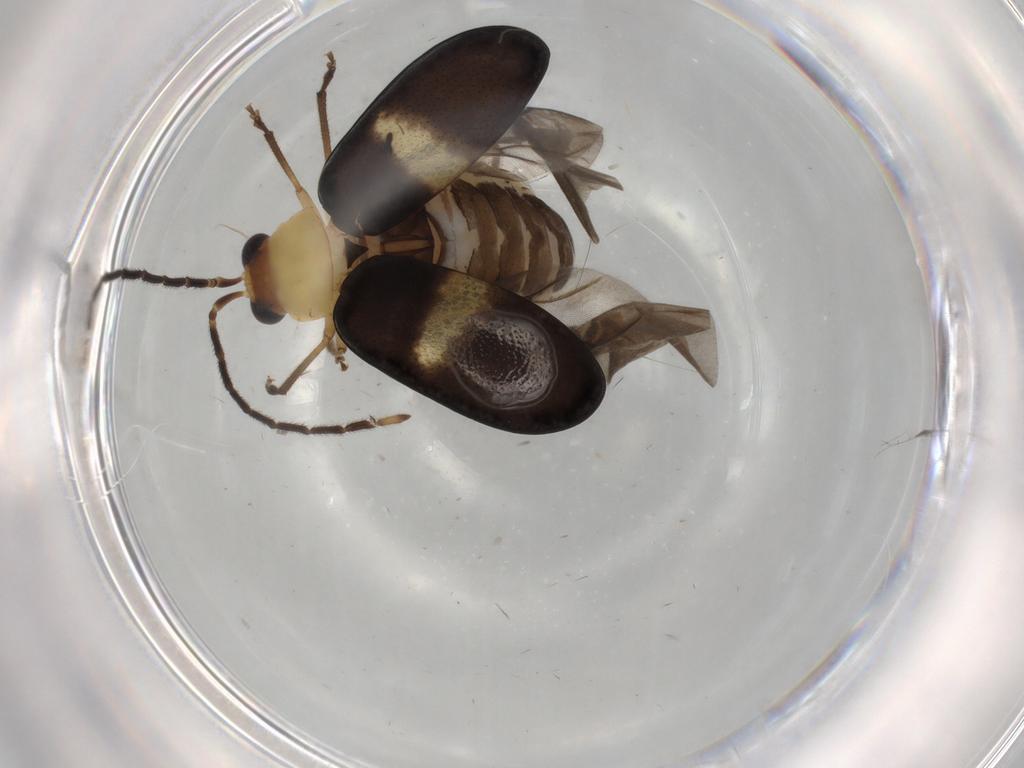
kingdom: Animalia
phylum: Arthropoda
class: Insecta
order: Coleoptera
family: Chrysomelidae
